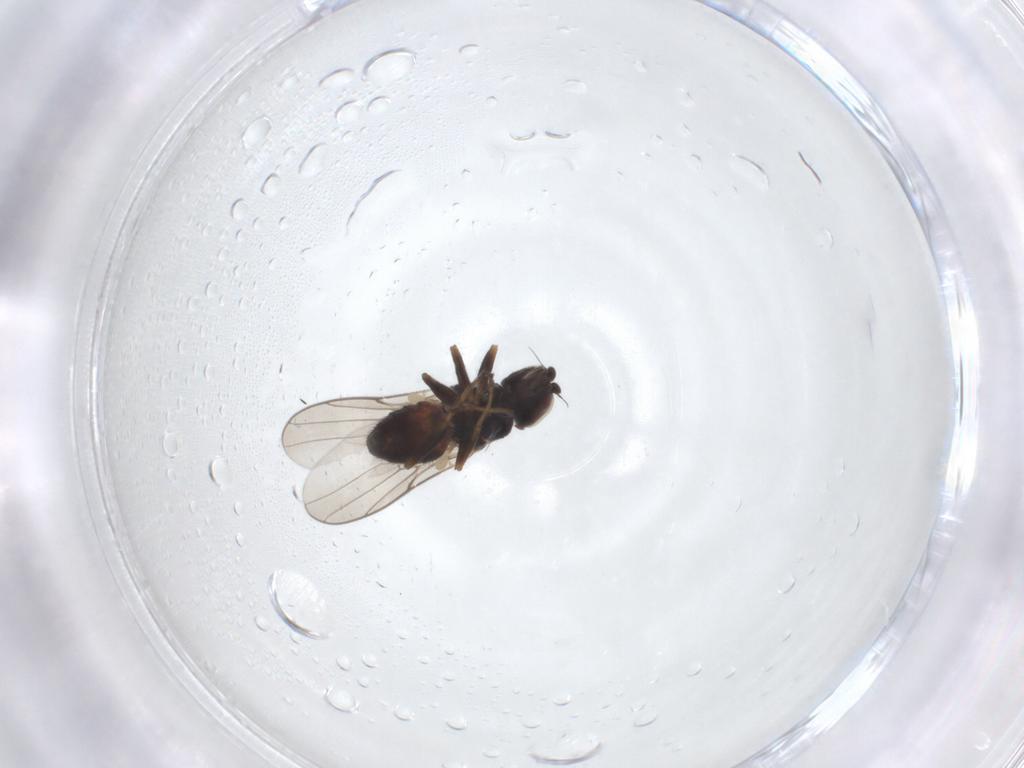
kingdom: Animalia
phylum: Arthropoda
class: Insecta
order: Diptera
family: Chloropidae
